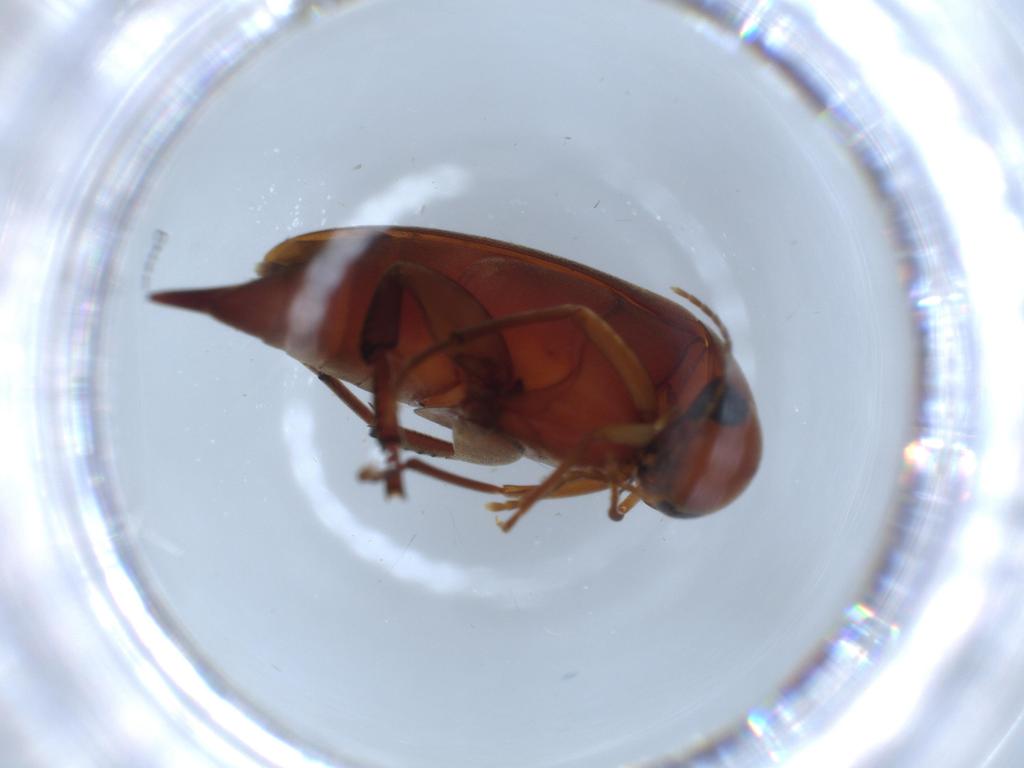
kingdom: Animalia
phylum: Arthropoda
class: Insecta
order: Coleoptera
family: Mordellidae
